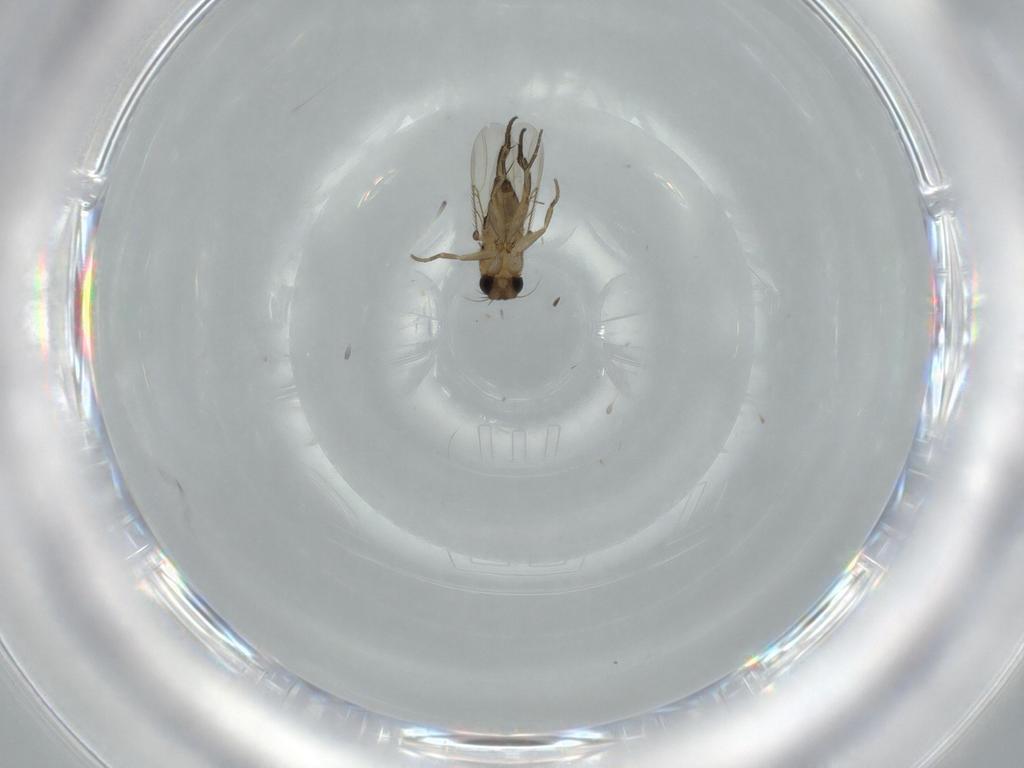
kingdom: Animalia
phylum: Arthropoda
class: Insecta
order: Diptera
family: Phoridae
